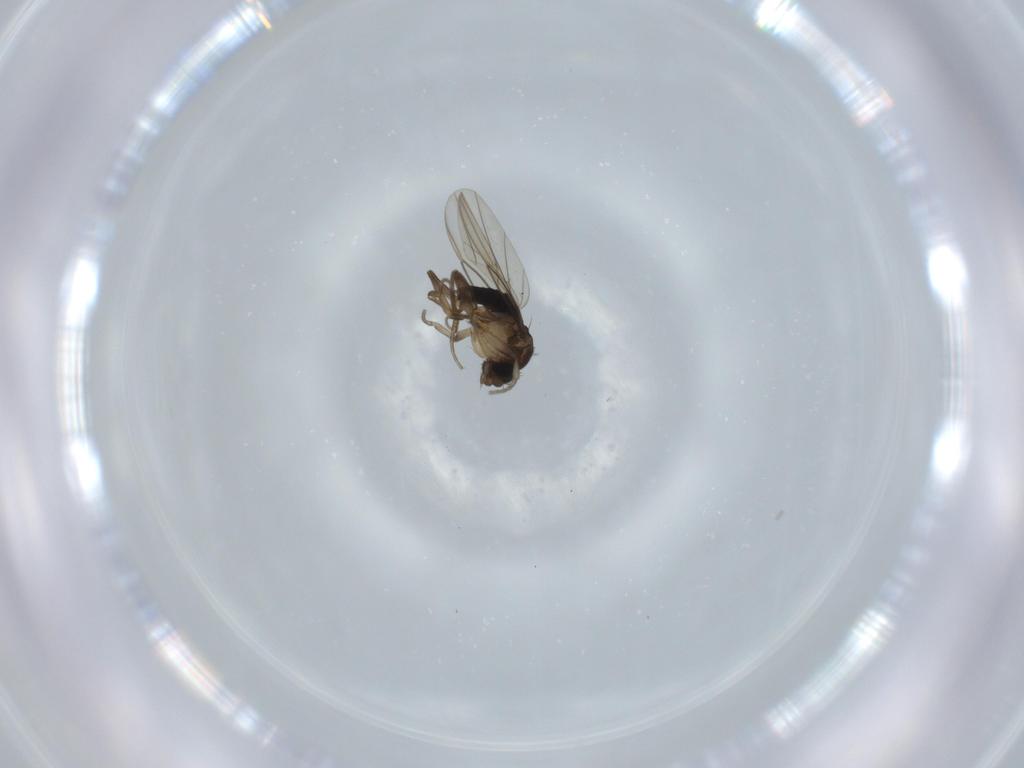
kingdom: Animalia
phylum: Arthropoda
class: Insecta
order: Diptera
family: Phoridae
